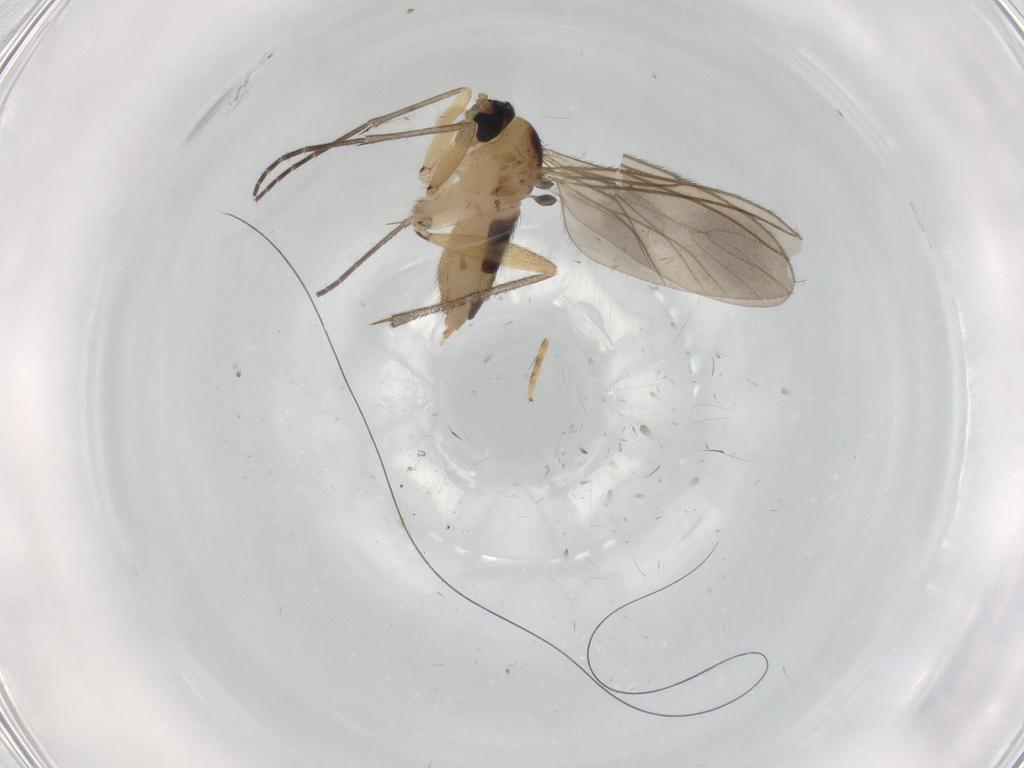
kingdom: Animalia
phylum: Arthropoda
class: Insecta
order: Diptera
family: Sciaridae
